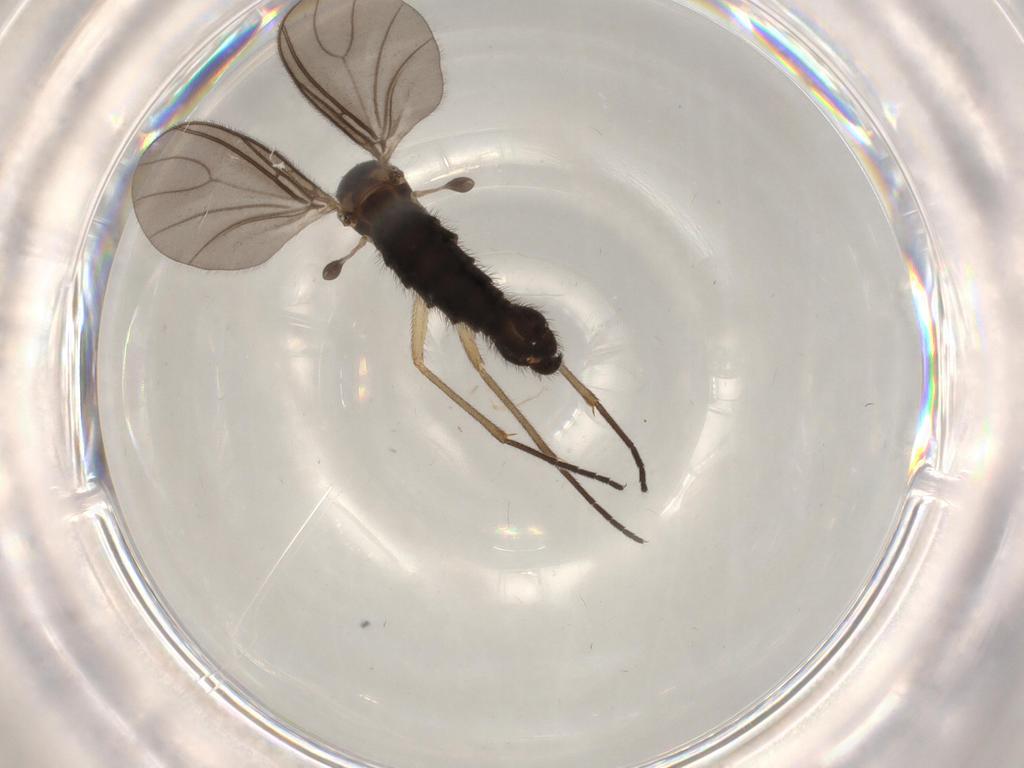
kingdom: Animalia
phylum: Arthropoda
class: Insecta
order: Diptera
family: Sciaridae
